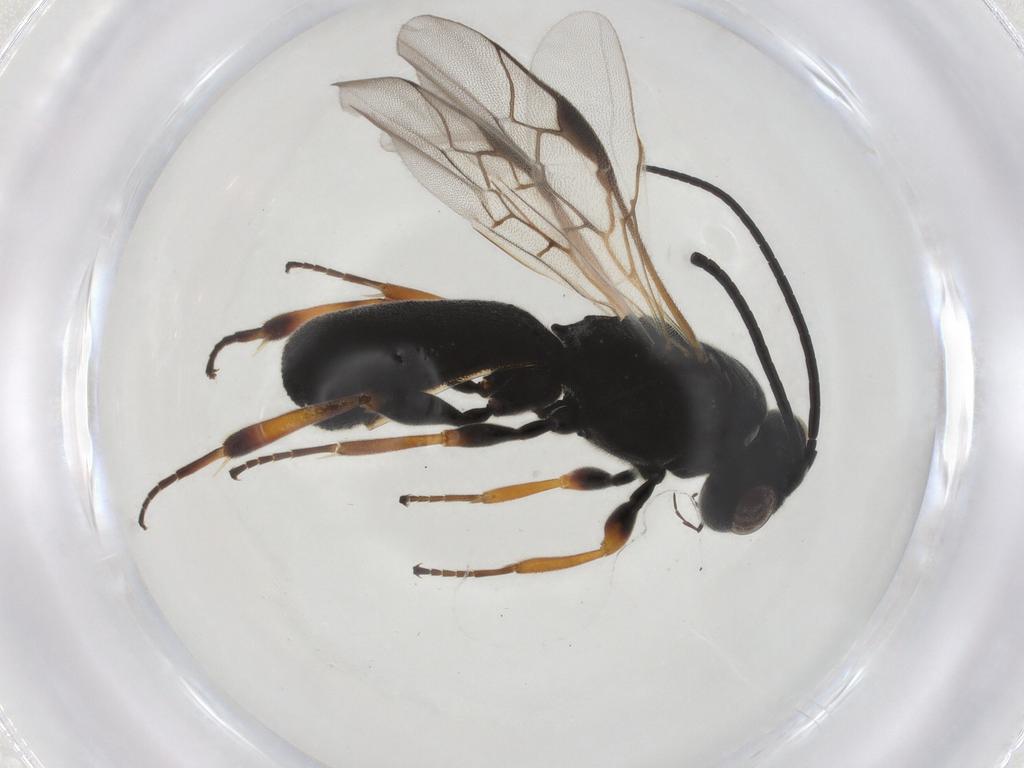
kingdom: Animalia
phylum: Arthropoda
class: Insecta
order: Hymenoptera
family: Braconidae
